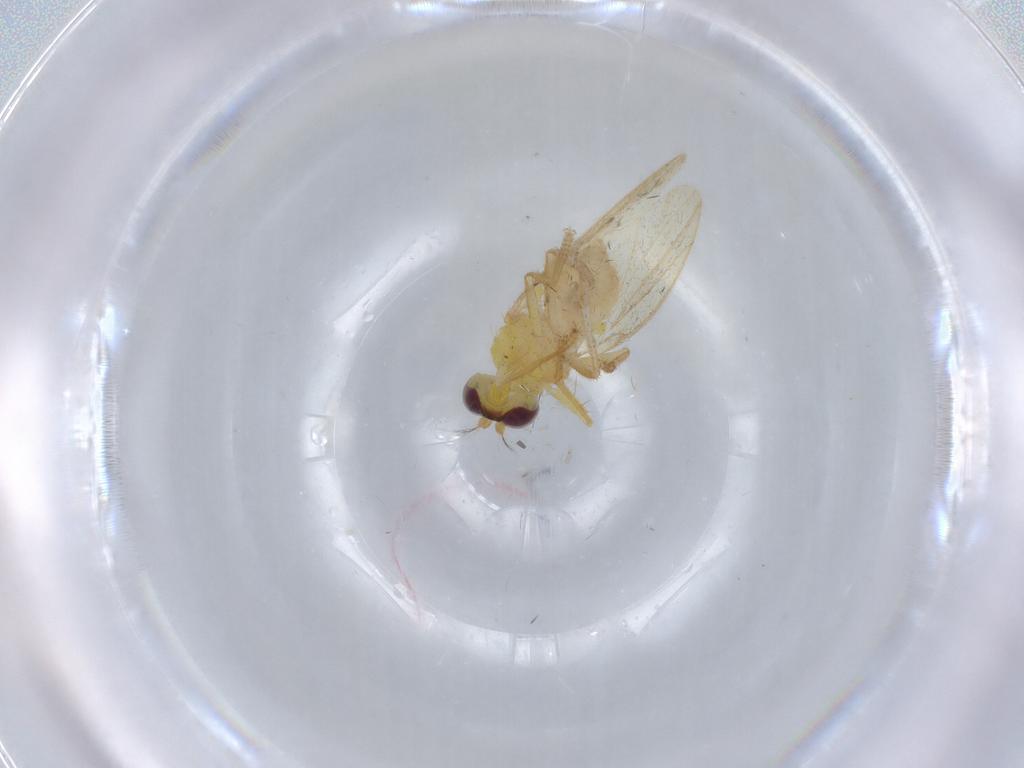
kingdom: Animalia
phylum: Arthropoda
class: Insecta
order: Diptera
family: Periscelididae
